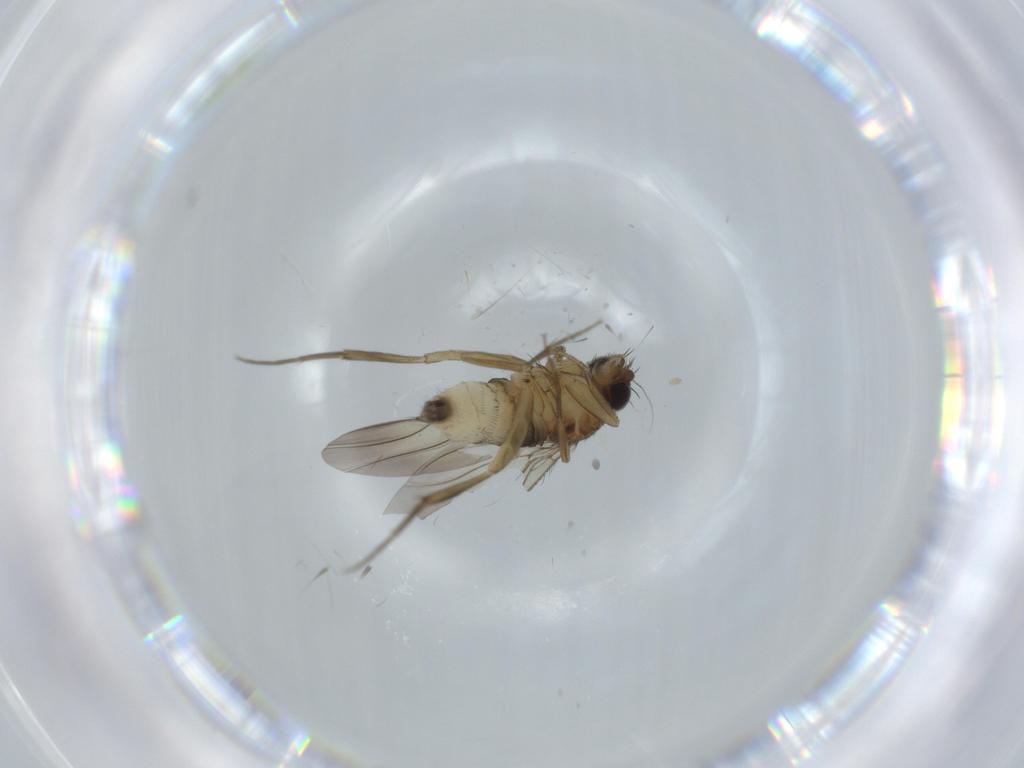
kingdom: Animalia
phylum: Arthropoda
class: Insecta
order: Diptera
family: Phoridae
